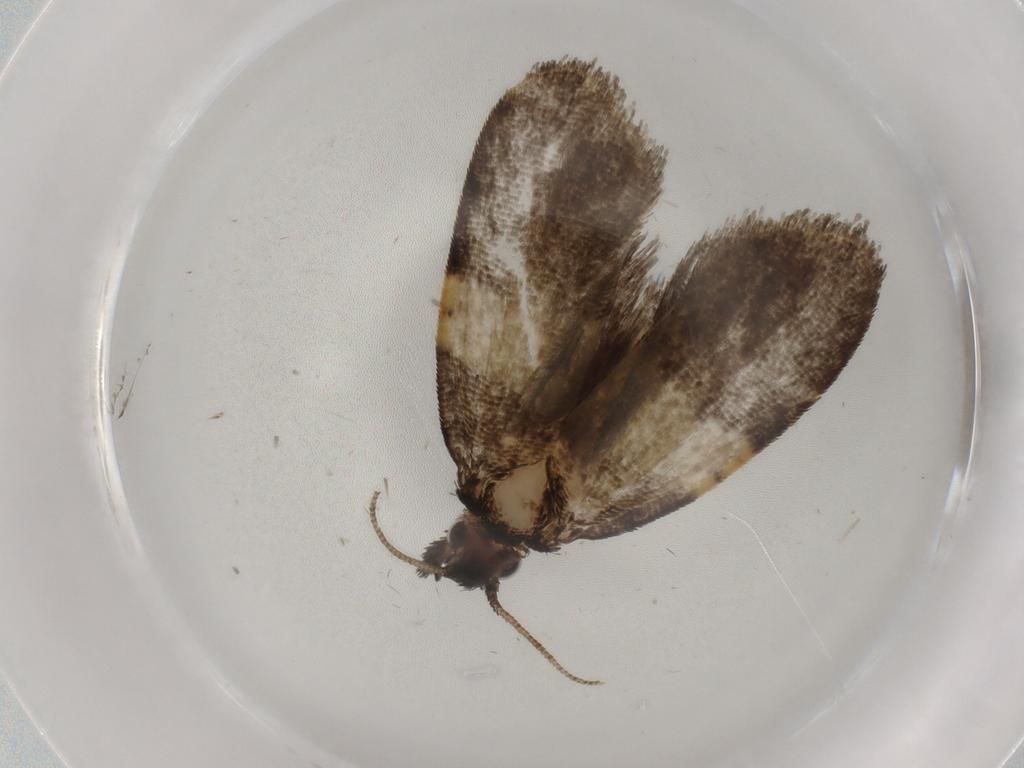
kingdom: Animalia
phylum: Arthropoda
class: Insecta
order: Lepidoptera
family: Psychidae
